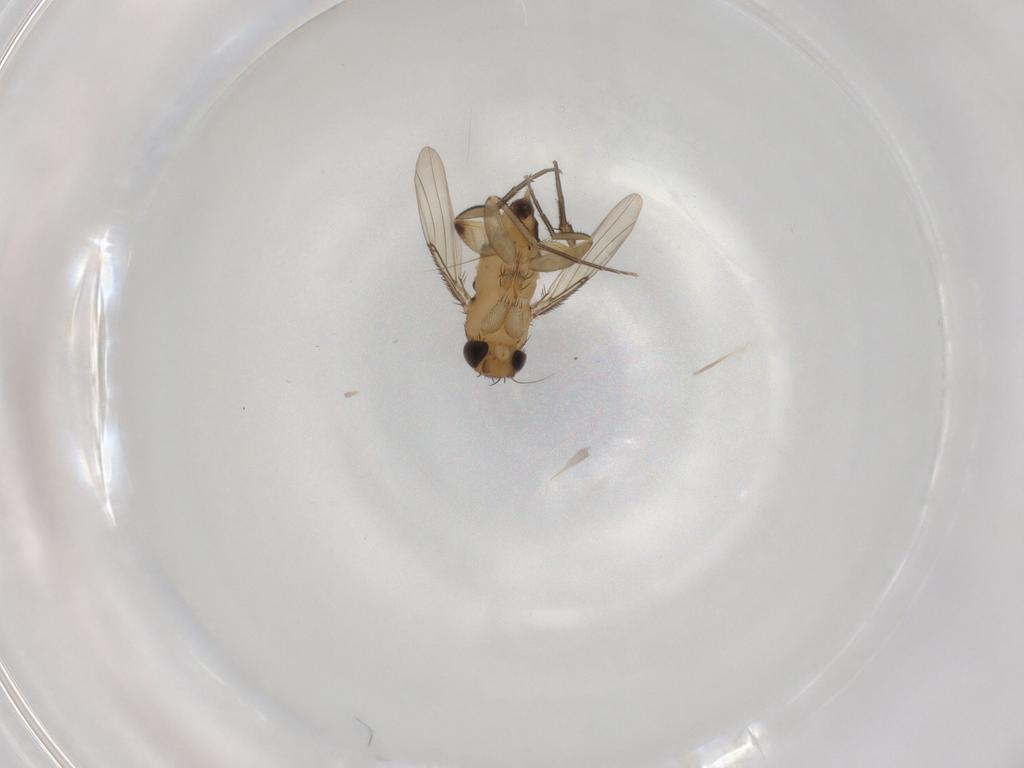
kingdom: Animalia
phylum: Arthropoda
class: Insecta
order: Diptera
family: Phoridae
